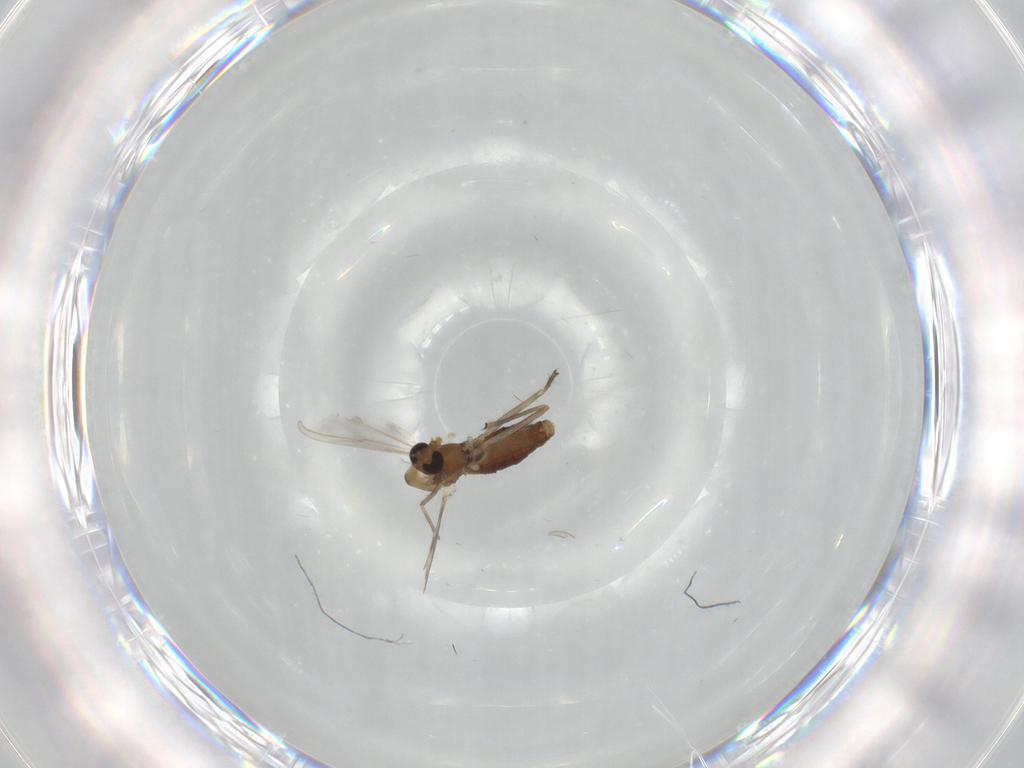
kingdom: Animalia
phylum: Arthropoda
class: Insecta
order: Diptera
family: Chironomidae
